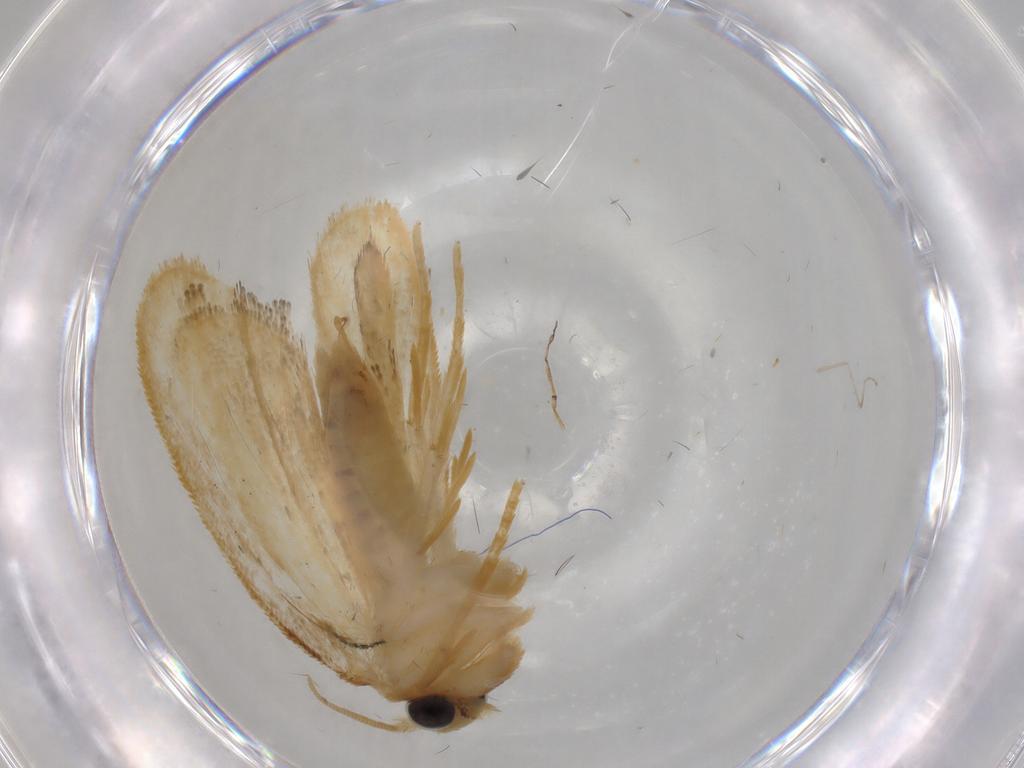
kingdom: Animalia
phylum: Arthropoda
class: Insecta
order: Lepidoptera
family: Psychidae
